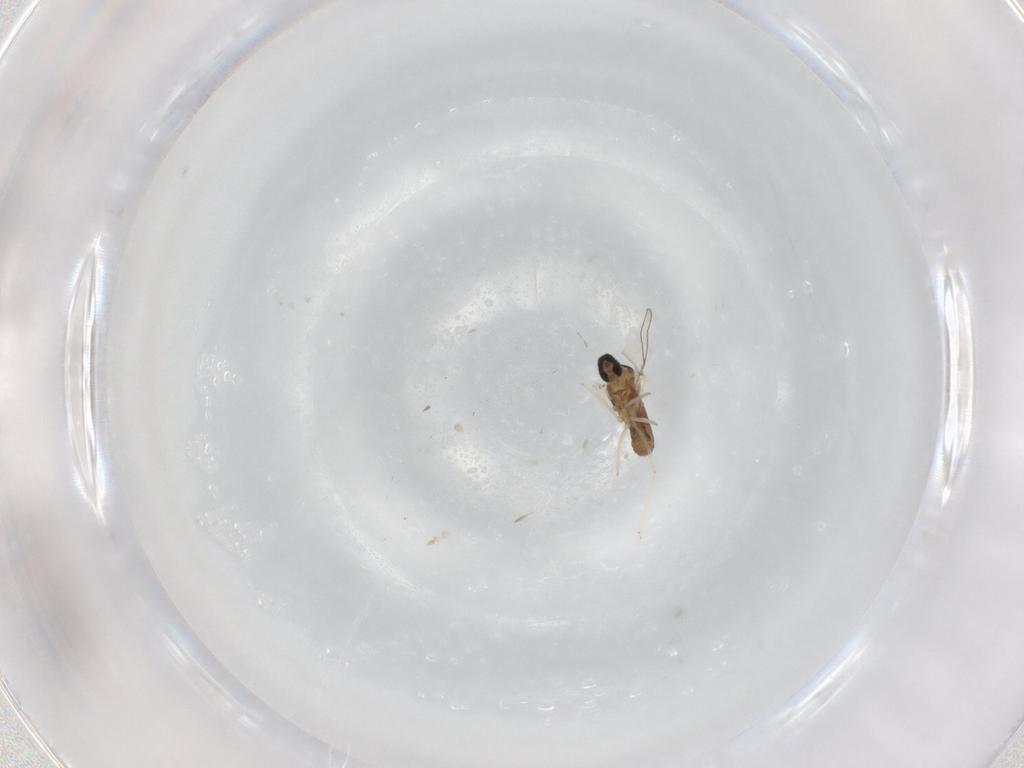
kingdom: Animalia
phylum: Arthropoda
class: Insecta
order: Diptera
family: Cecidomyiidae
